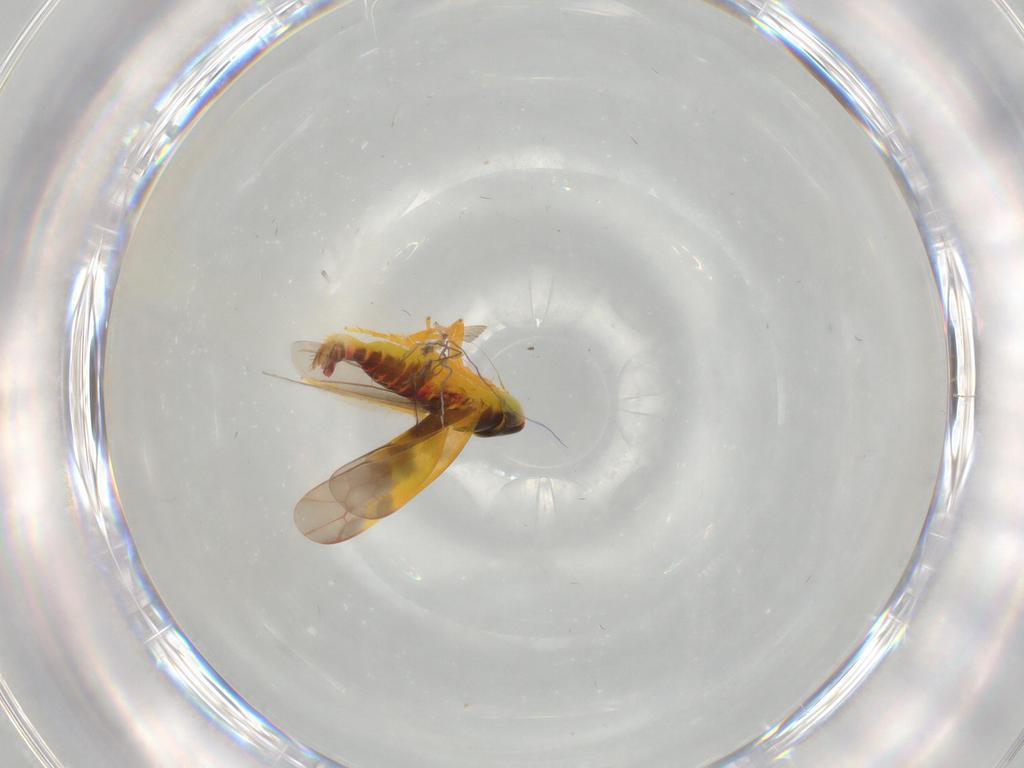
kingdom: Animalia
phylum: Arthropoda
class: Insecta
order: Hemiptera
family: Cicadellidae
